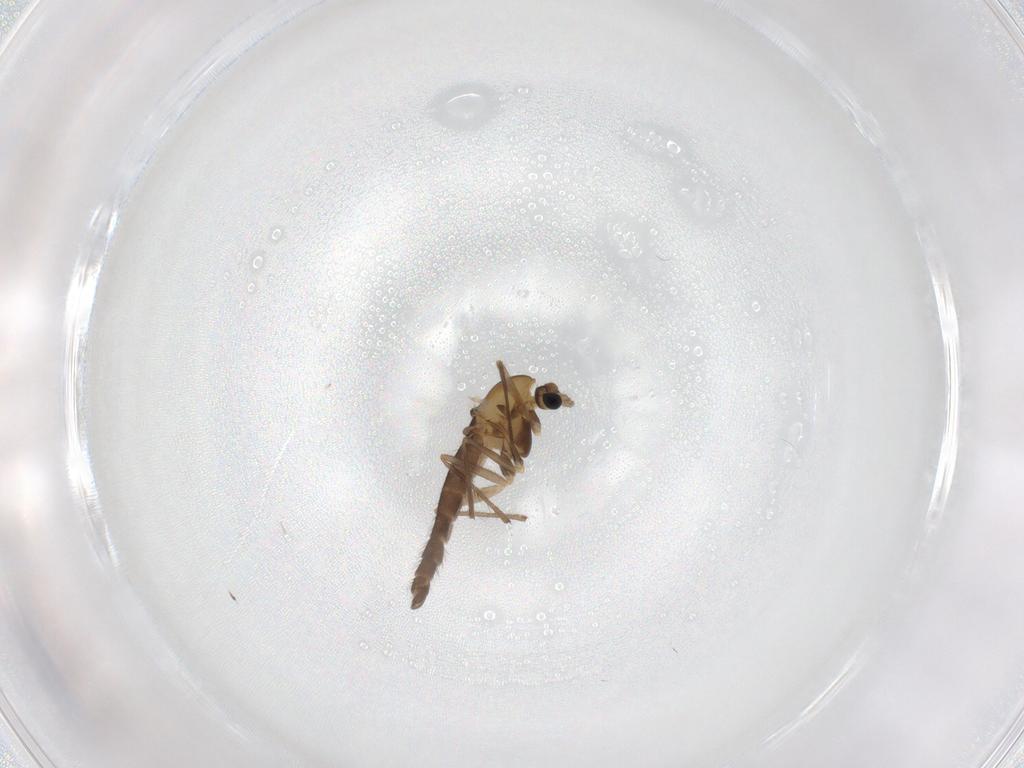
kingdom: Animalia
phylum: Arthropoda
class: Insecta
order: Diptera
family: Chironomidae
